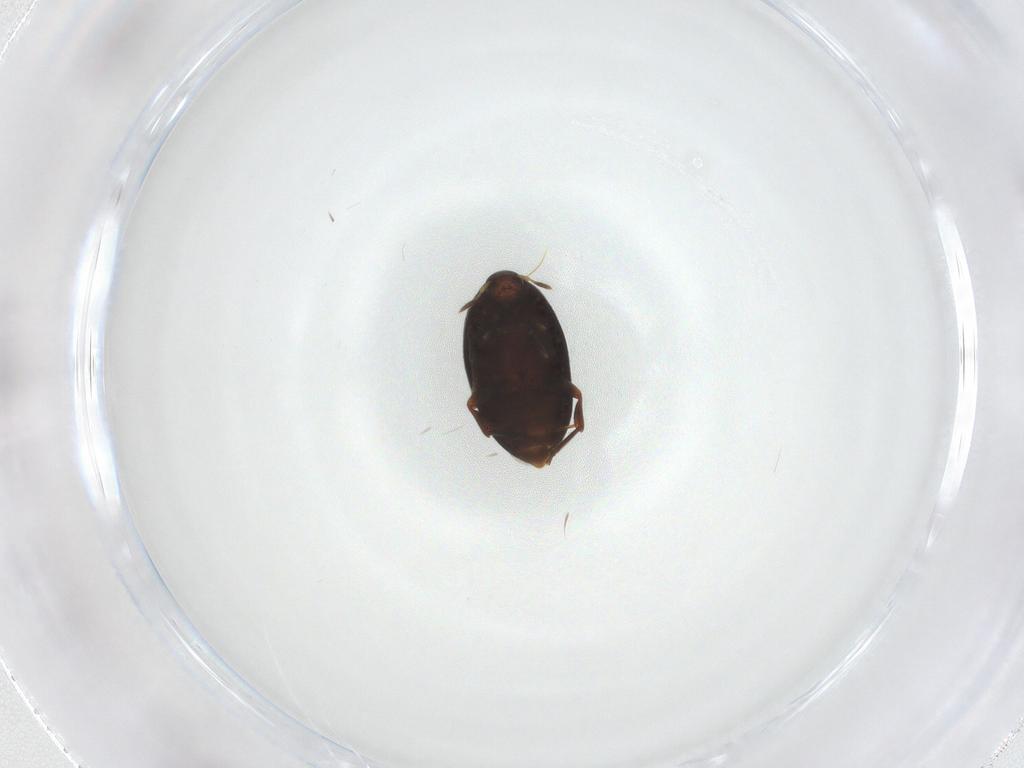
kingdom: Animalia
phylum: Arthropoda
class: Insecta
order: Coleoptera
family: Melandryidae
